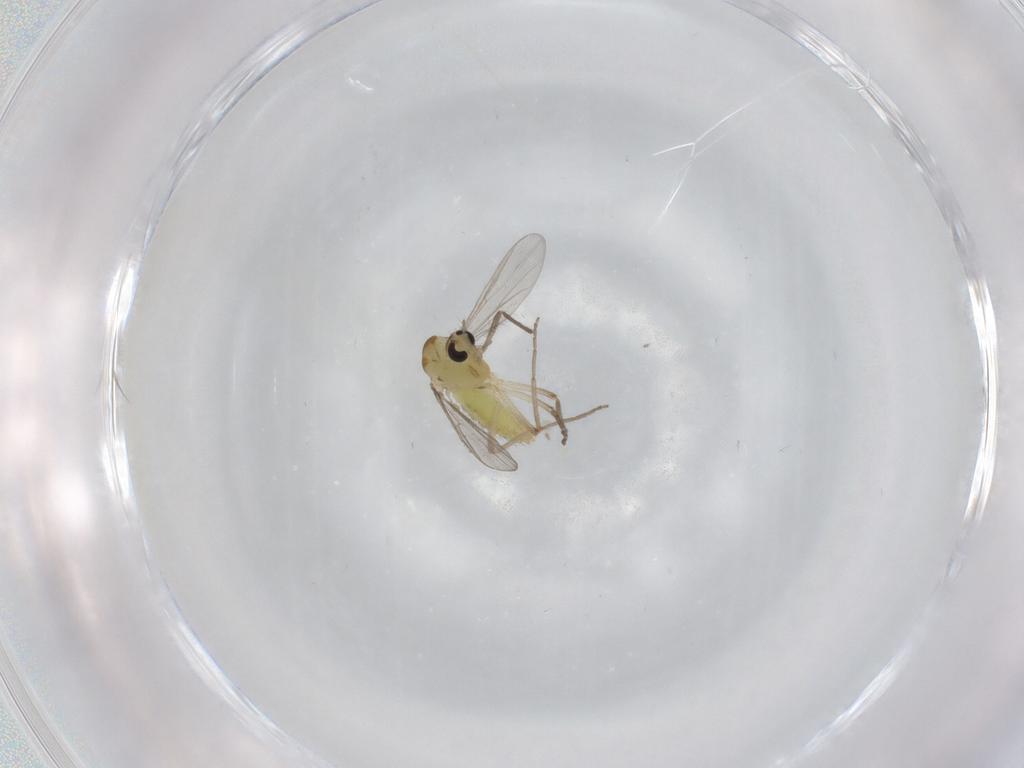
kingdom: Animalia
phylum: Arthropoda
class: Insecta
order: Diptera
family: Chironomidae
